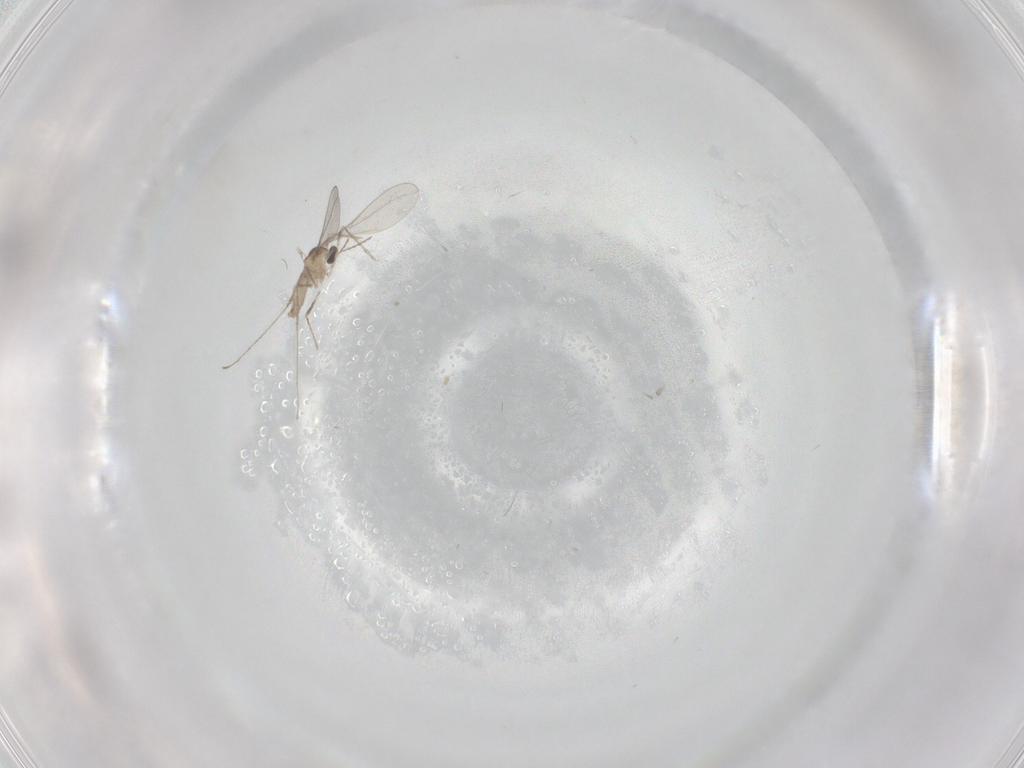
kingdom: Animalia
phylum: Arthropoda
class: Insecta
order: Diptera
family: Cecidomyiidae
